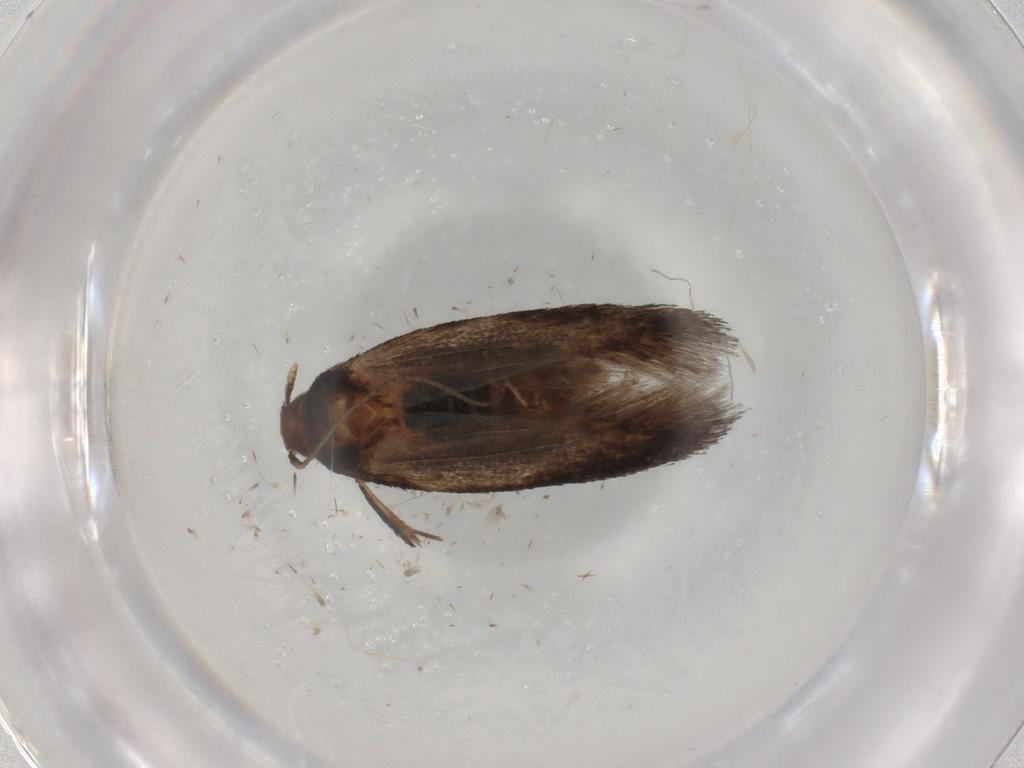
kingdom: Animalia
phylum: Arthropoda
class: Insecta
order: Lepidoptera
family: Cosmopterigidae
